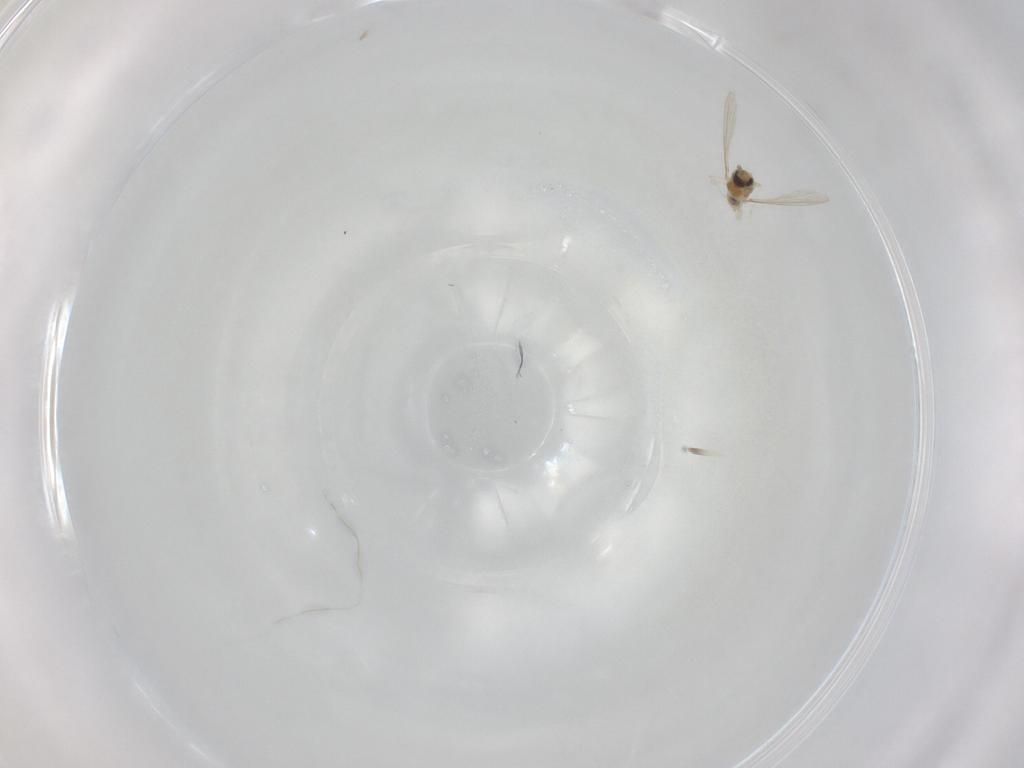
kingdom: Animalia
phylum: Arthropoda
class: Insecta
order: Diptera
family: Cecidomyiidae
